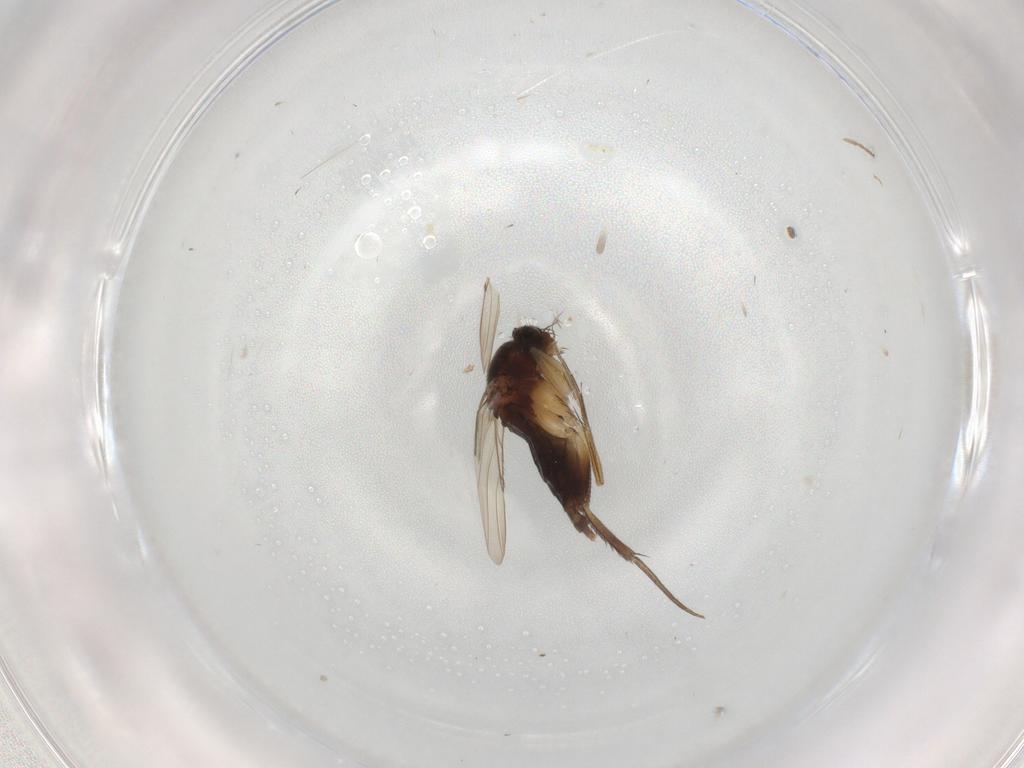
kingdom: Animalia
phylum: Arthropoda
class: Insecta
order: Diptera
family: Phoridae
